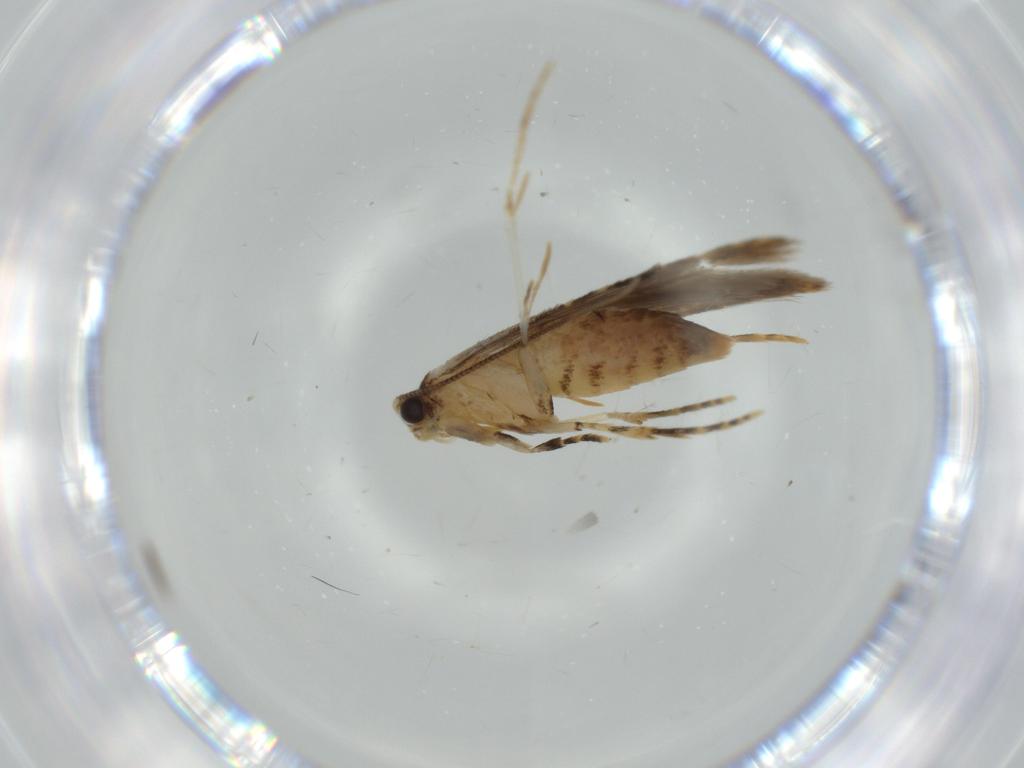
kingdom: Animalia
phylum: Arthropoda
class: Insecta
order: Lepidoptera
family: Tineidae
